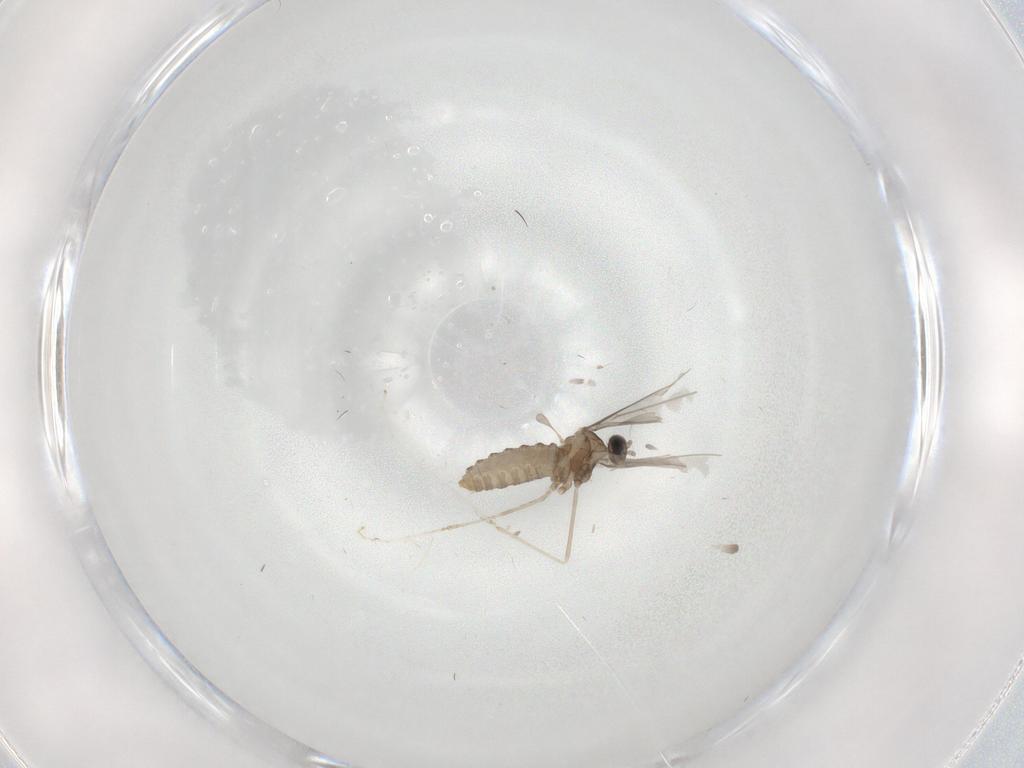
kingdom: Animalia
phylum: Arthropoda
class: Insecta
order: Diptera
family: Cecidomyiidae
